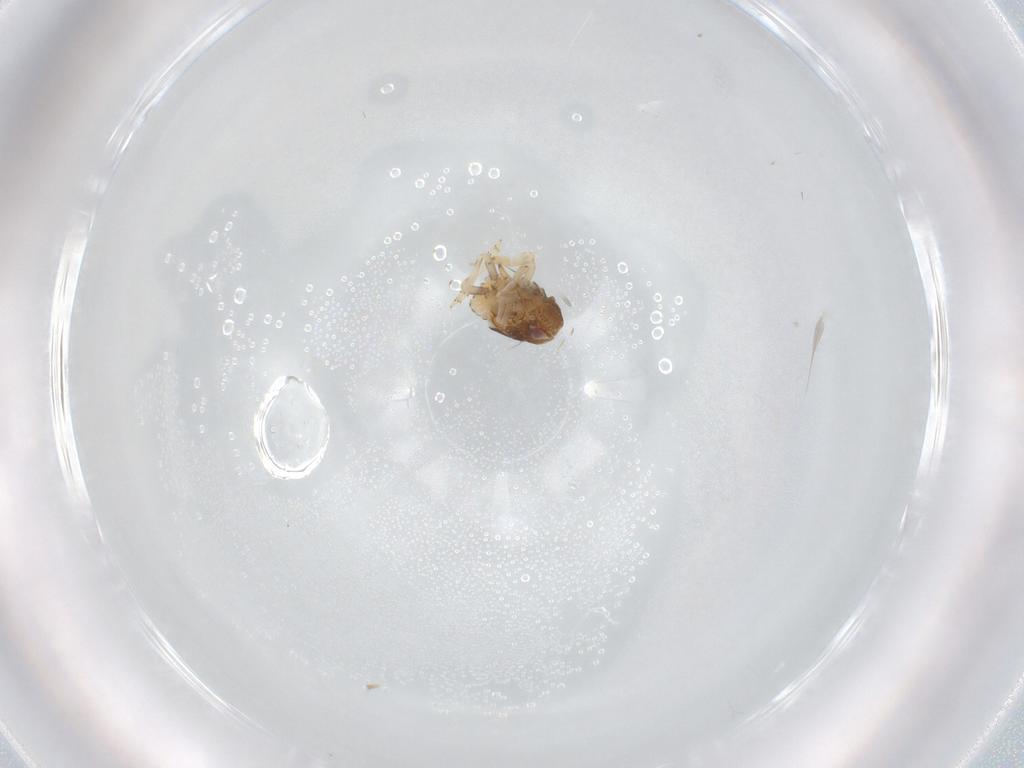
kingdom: Animalia
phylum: Arthropoda
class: Insecta
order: Hemiptera
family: Acanaloniidae
